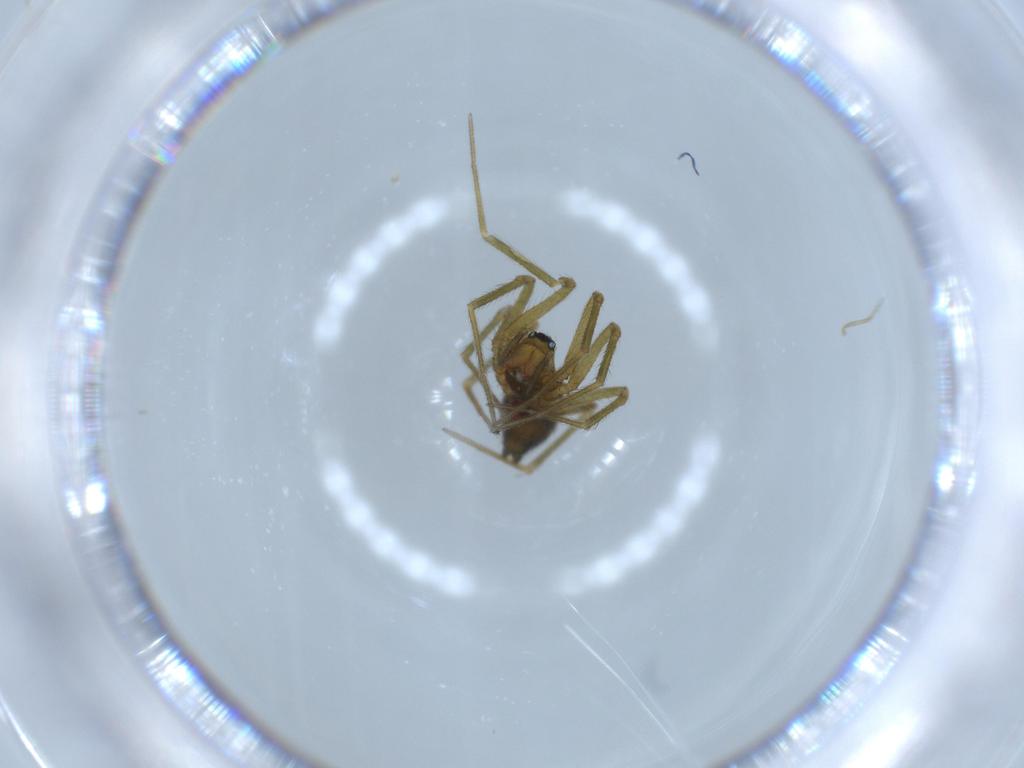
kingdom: Animalia
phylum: Arthropoda
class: Arachnida
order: Araneae
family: Linyphiidae
